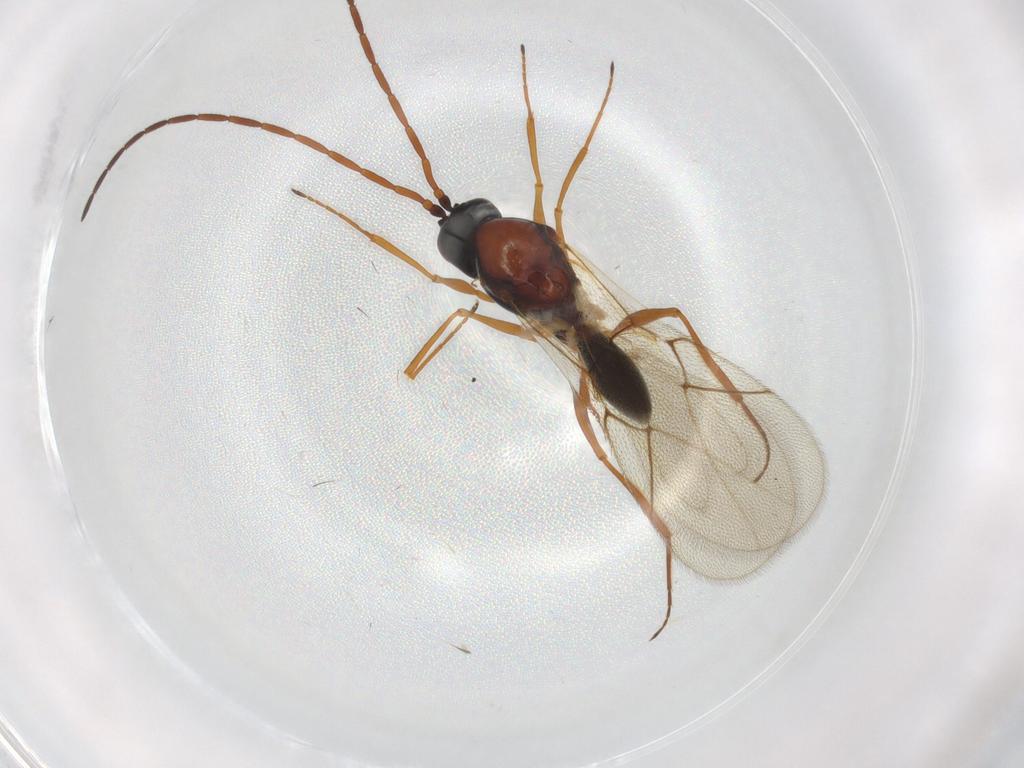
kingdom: Animalia
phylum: Arthropoda
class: Insecta
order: Hymenoptera
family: Figitidae
